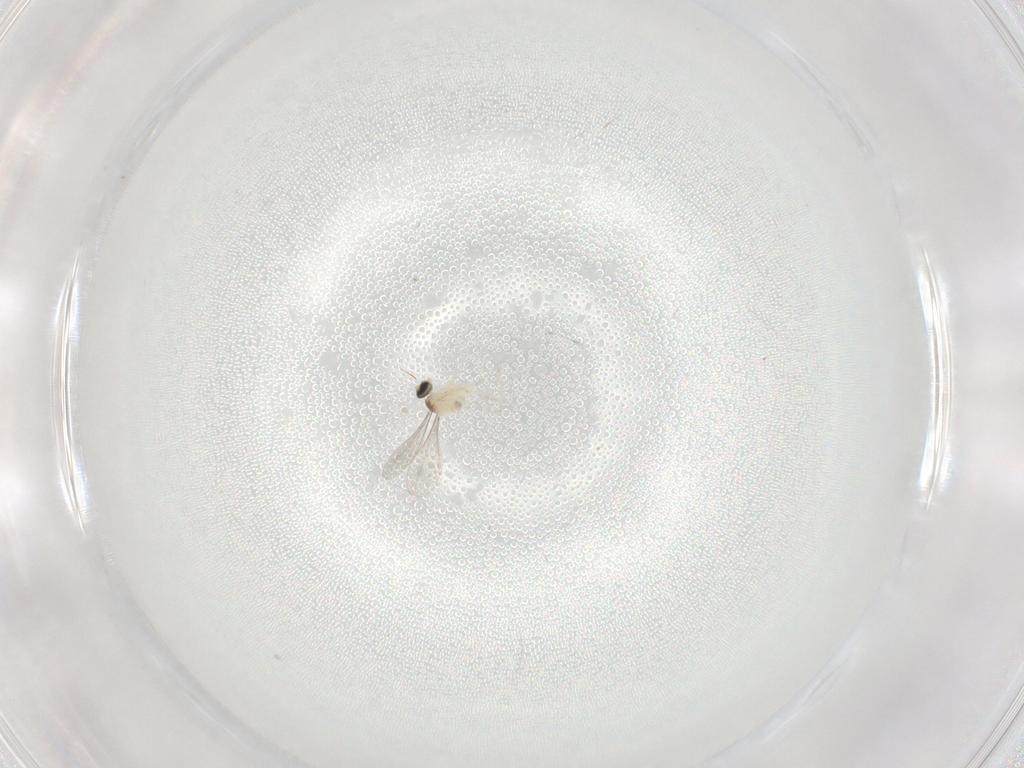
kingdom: Animalia
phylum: Arthropoda
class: Insecta
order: Diptera
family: Cecidomyiidae
